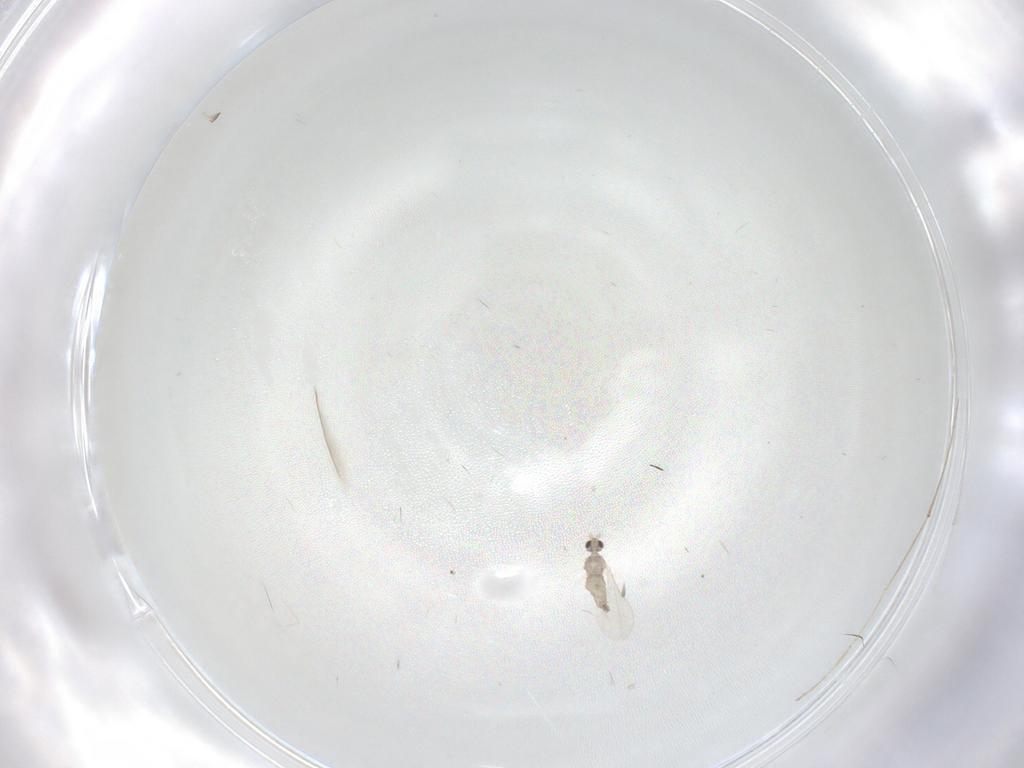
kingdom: Animalia
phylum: Arthropoda
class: Insecta
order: Diptera
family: Cecidomyiidae
